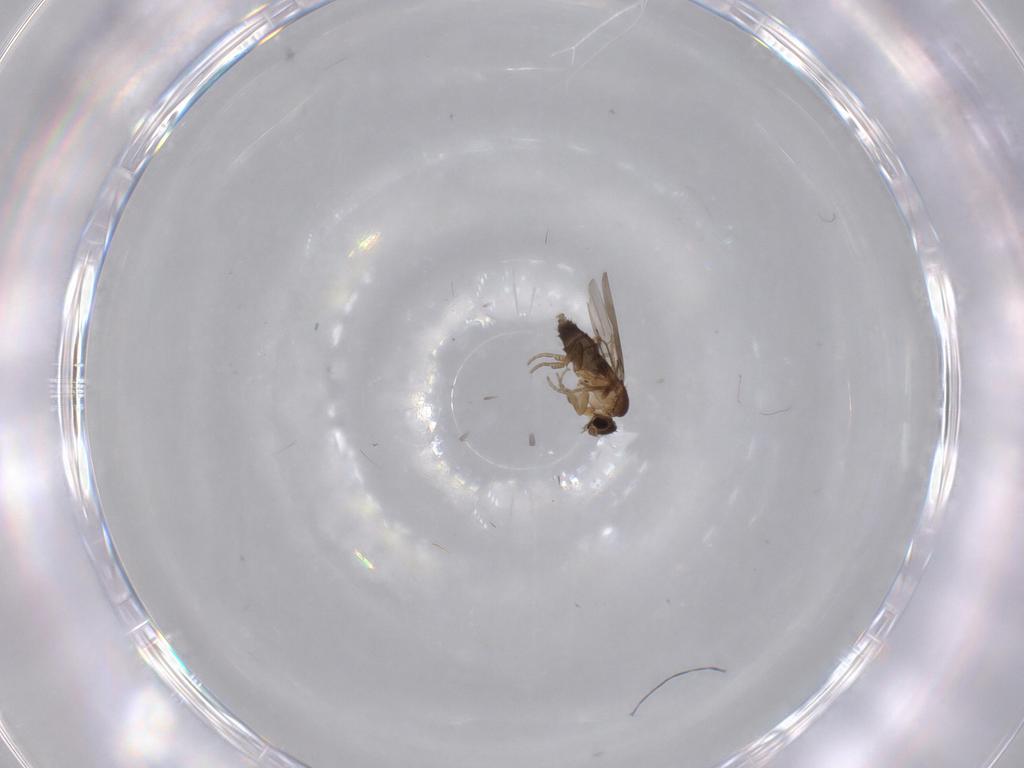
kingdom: Animalia
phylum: Arthropoda
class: Insecta
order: Diptera
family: Phoridae
